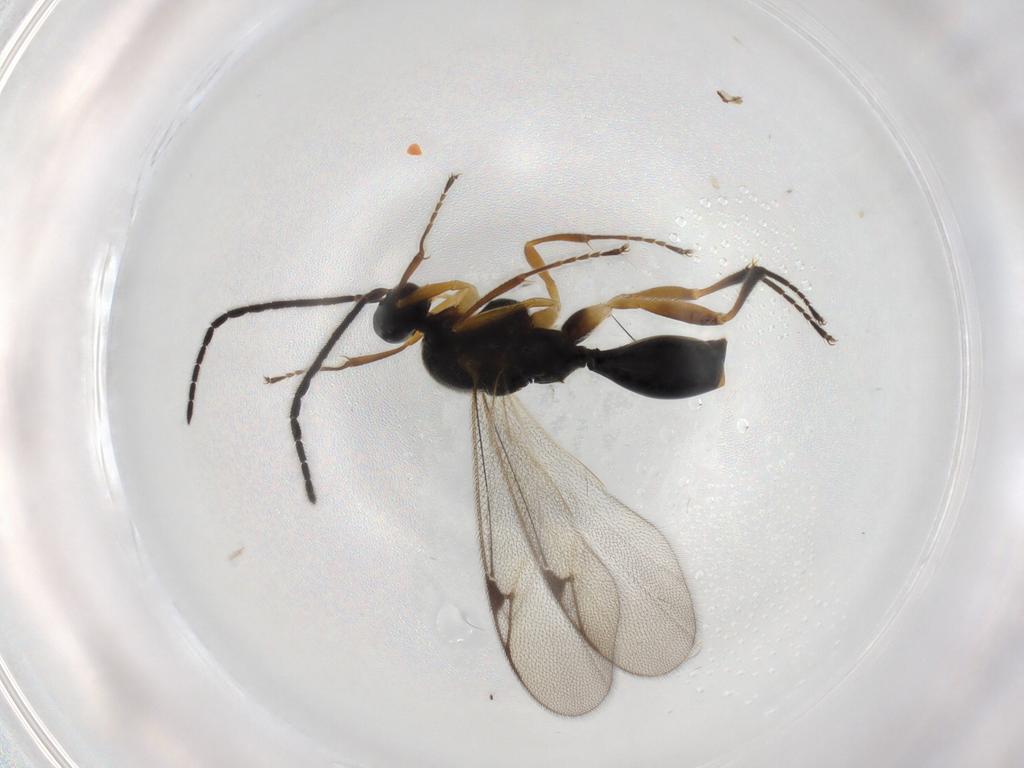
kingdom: Animalia
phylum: Arthropoda
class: Insecta
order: Hymenoptera
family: Proctotrupidae
